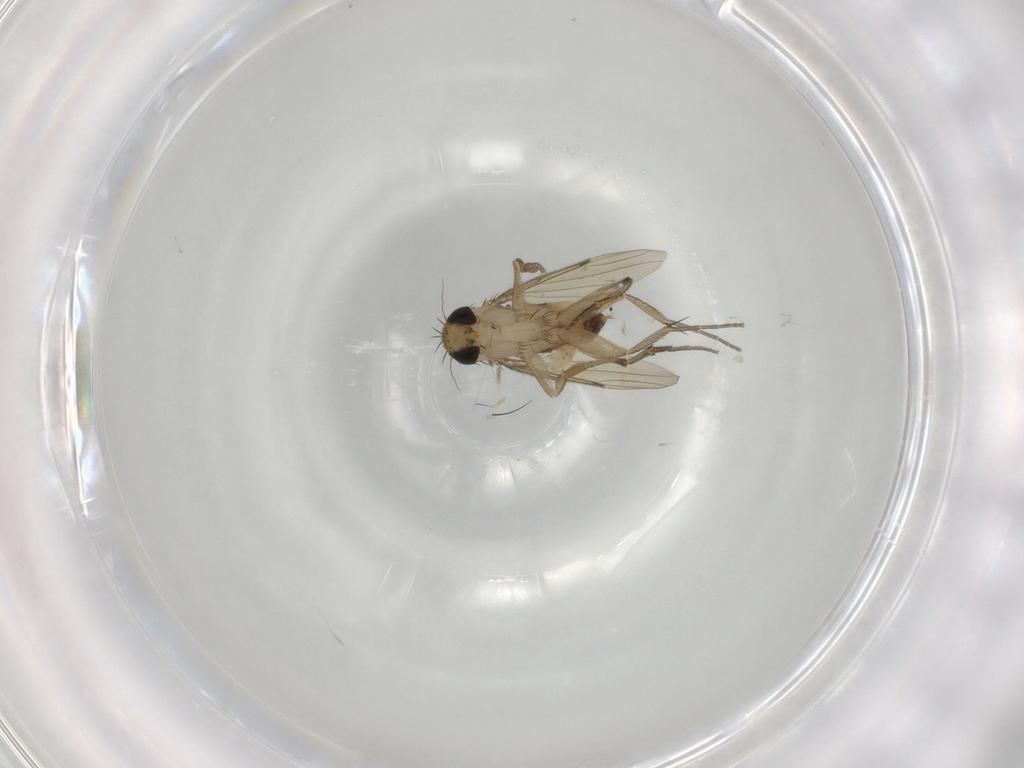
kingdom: Animalia
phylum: Arthropoda
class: Insecta
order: Diptera
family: Phoridae
